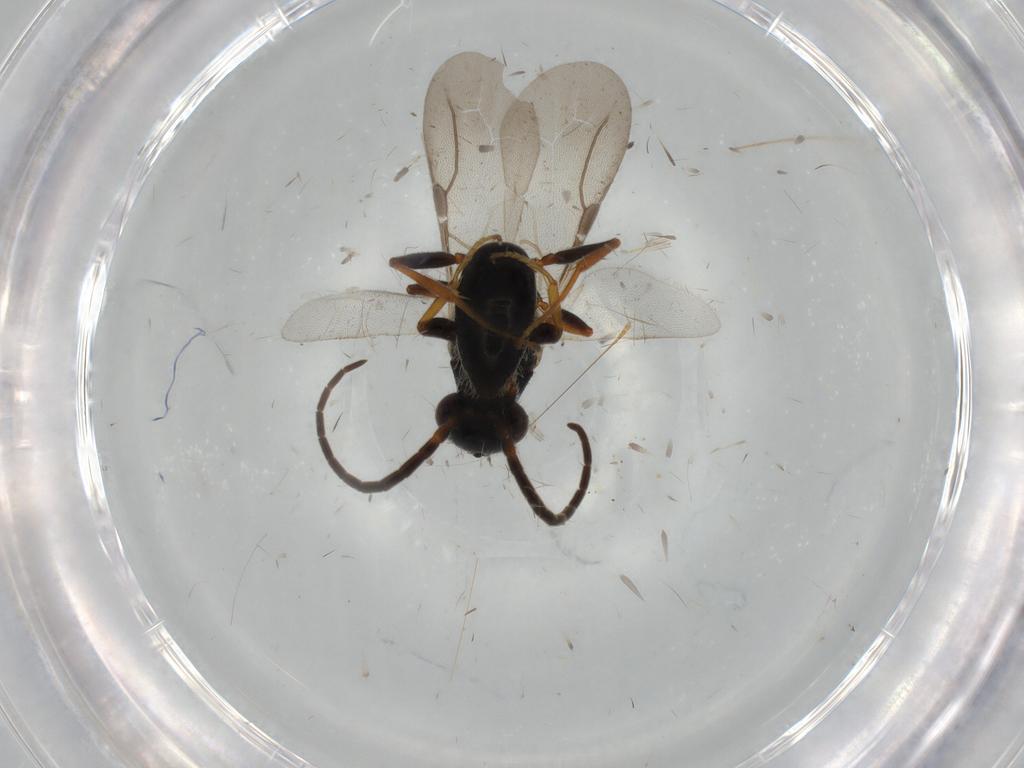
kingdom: Animalia
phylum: Arthropoda
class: Insecta
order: Hymenoptera
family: Bethylidae
